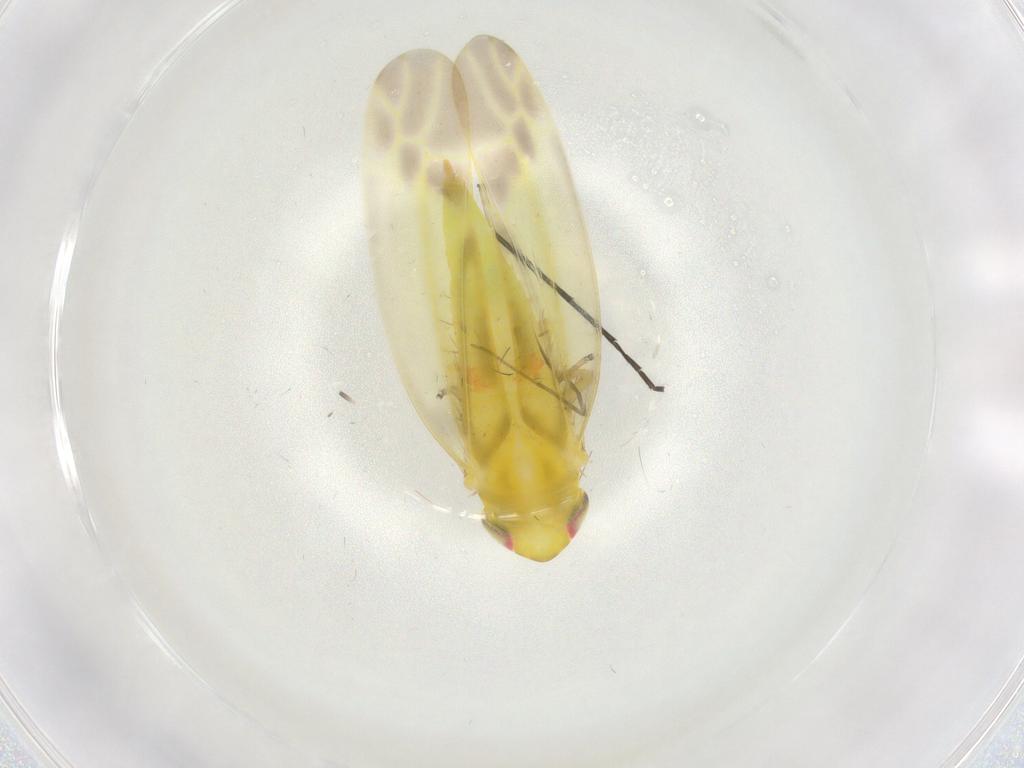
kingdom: Animalia
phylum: Arthropoda
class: Insecta
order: Hemiptera
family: Cicadellidae
